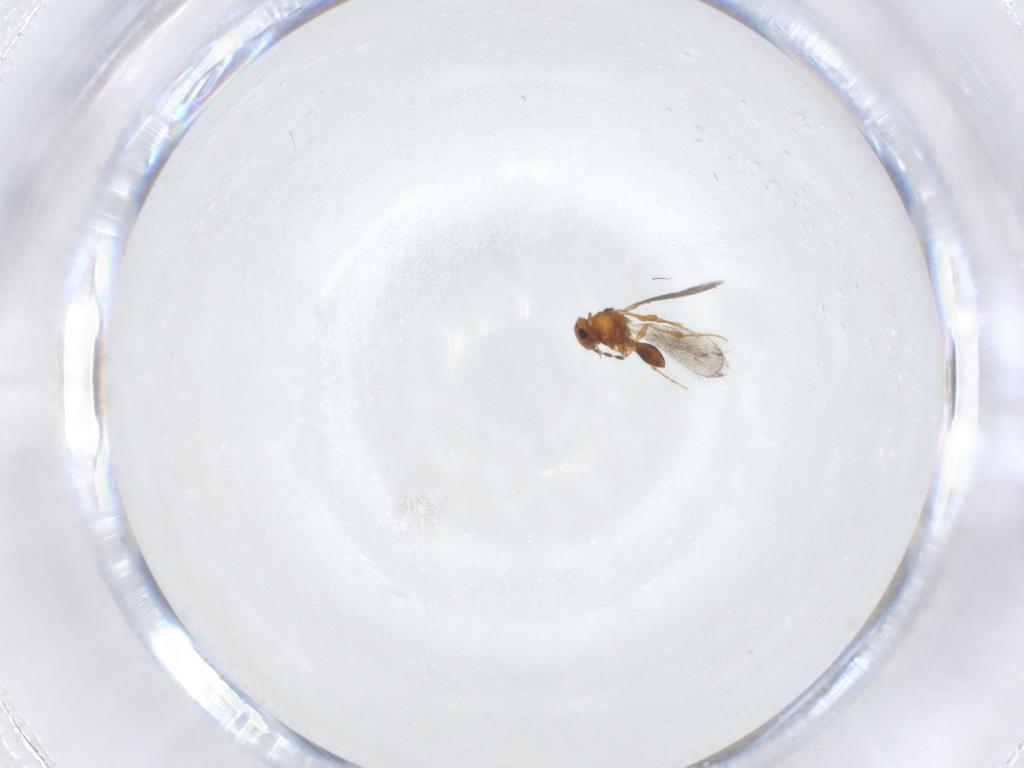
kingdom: Animalia
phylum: Arthropoda
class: Insecta
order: Hymenoptera
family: Platygastridae
